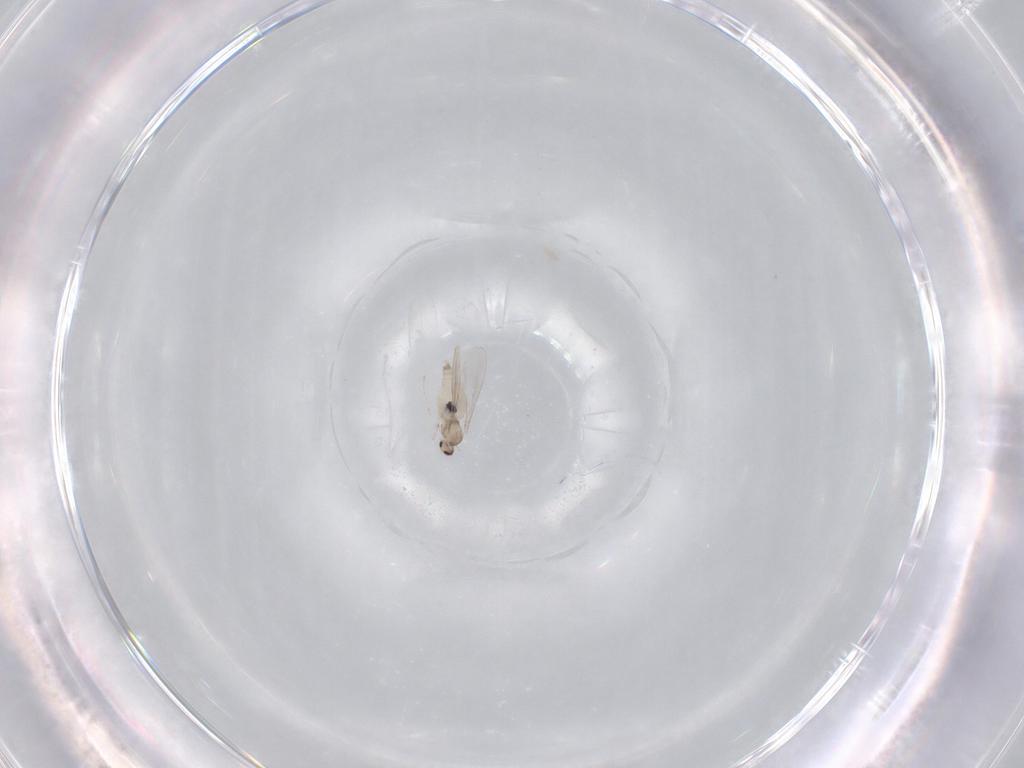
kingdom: Animalia
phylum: Arthropoda
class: Insecta
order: Diptera
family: Cecidomyiidae
